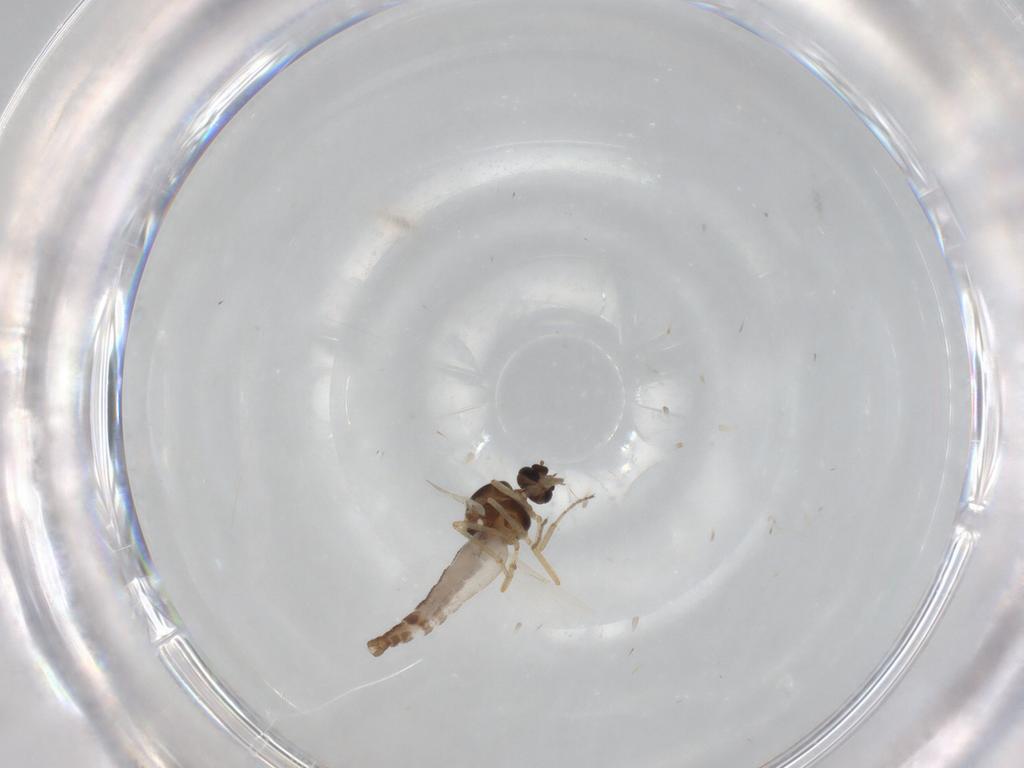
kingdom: Animalia
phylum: Arthropoda
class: Insecta
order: Diptera
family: Ceratopogonidae
